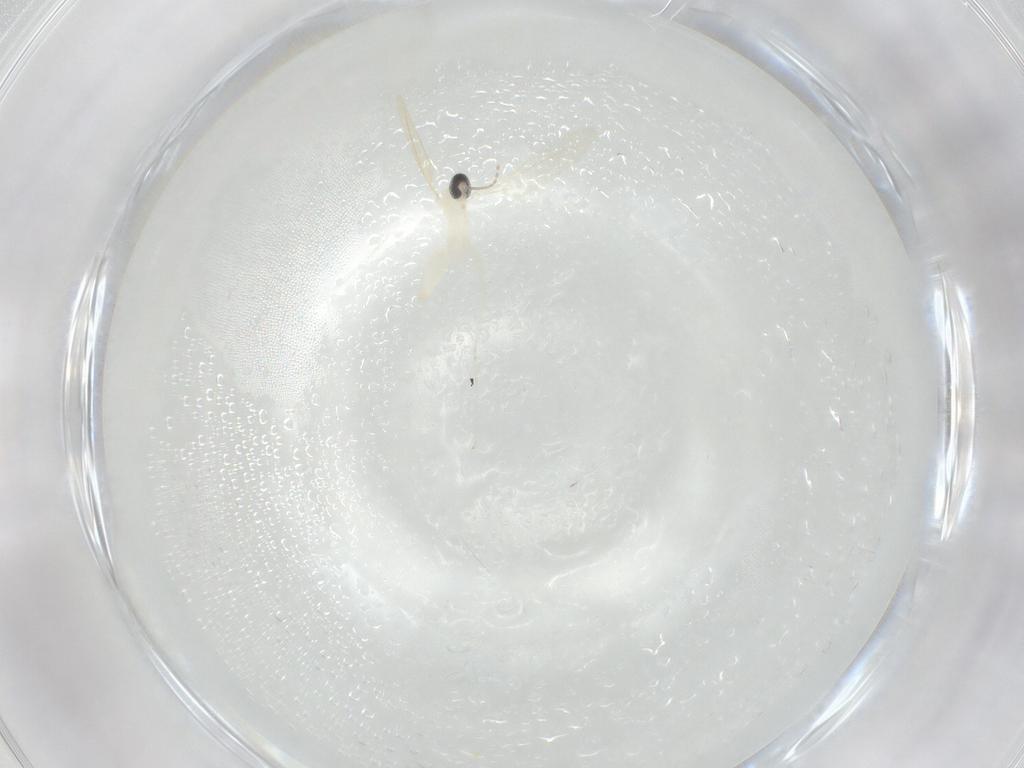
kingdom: Animalia
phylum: Arthropoda
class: Insecta
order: Diptera
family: Cecidomyiidae
